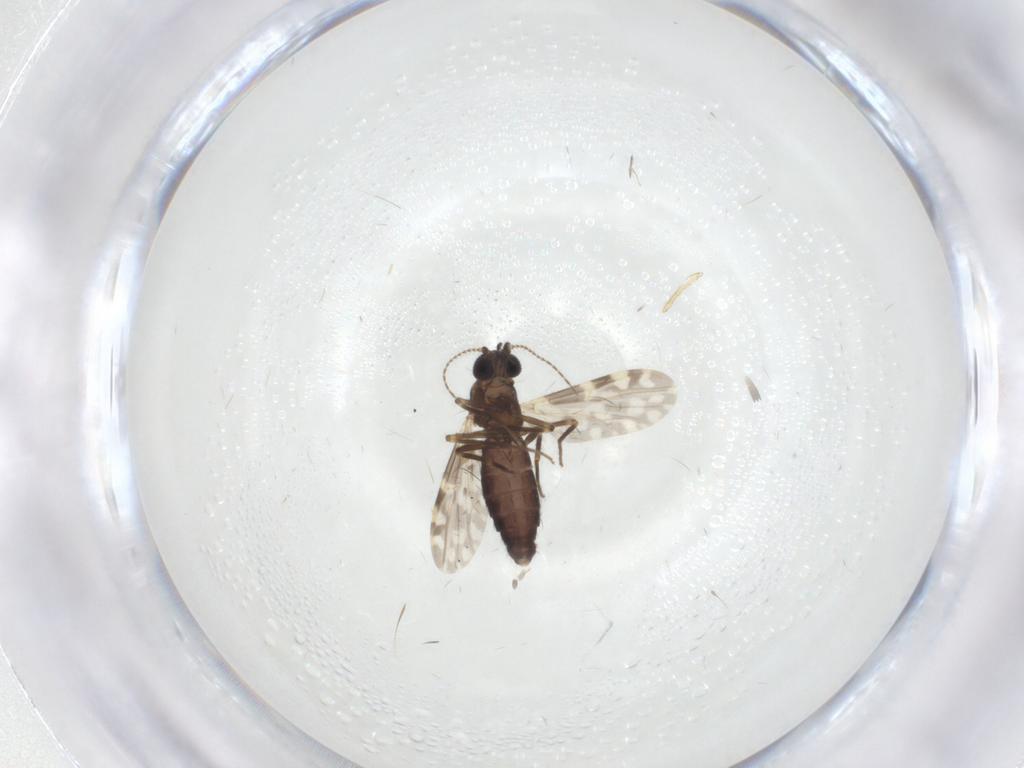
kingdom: Animalia
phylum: Arthropoda
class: Insecta
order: Diptera
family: Ceratopogonidae
